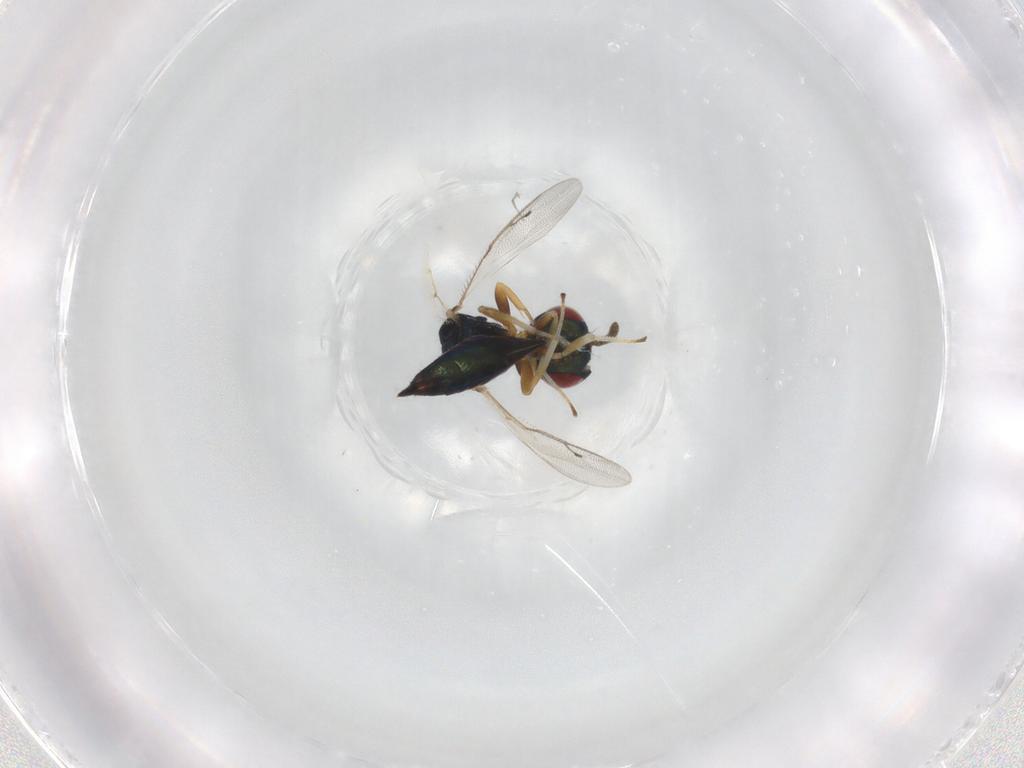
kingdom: Animalia
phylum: Arthropoda
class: Insecta
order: Hymenoptera
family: Pteromalidae
